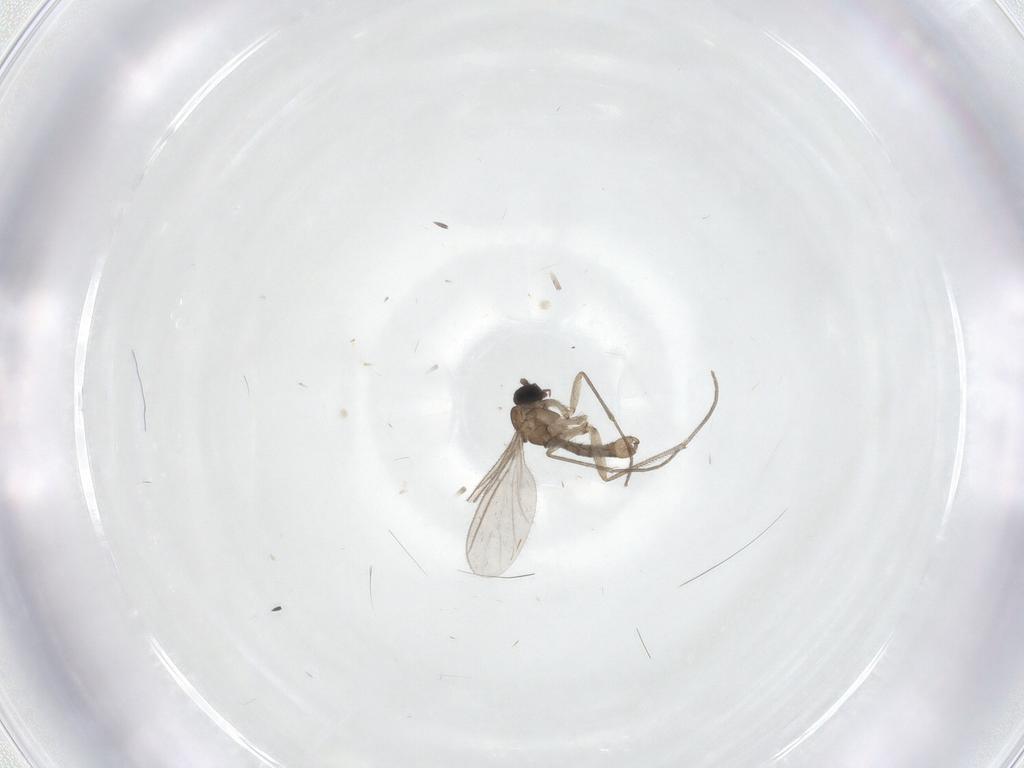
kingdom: Animalia
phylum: Arthropoda
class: Insecta
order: Diptera
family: Sciaridae
